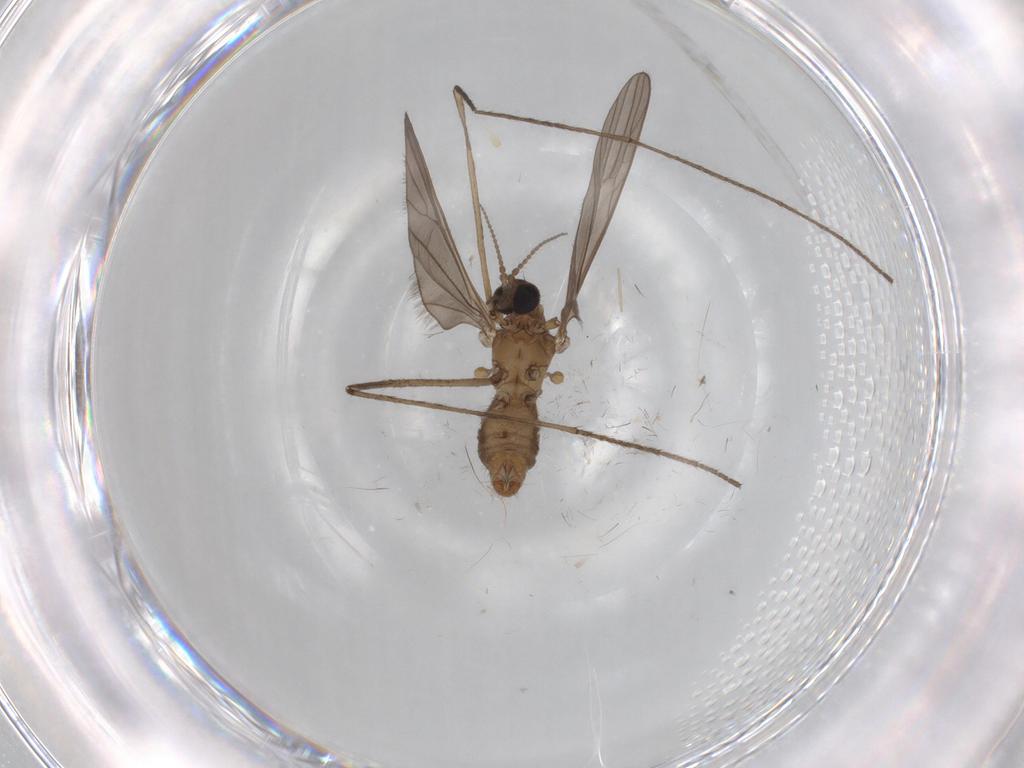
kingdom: Animalia
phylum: Arthropoda
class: Insecta
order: Diptera
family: Limoniidae
